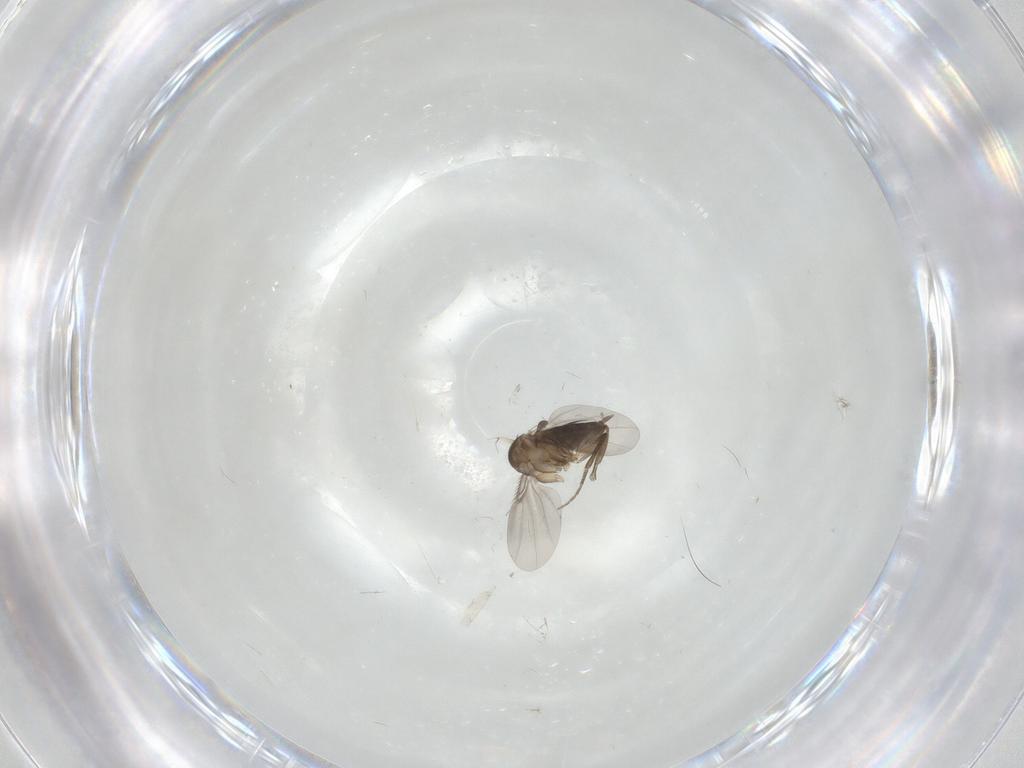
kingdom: Animalia
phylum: Arthropoda
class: Insecta
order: Diptera
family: Phoridae
